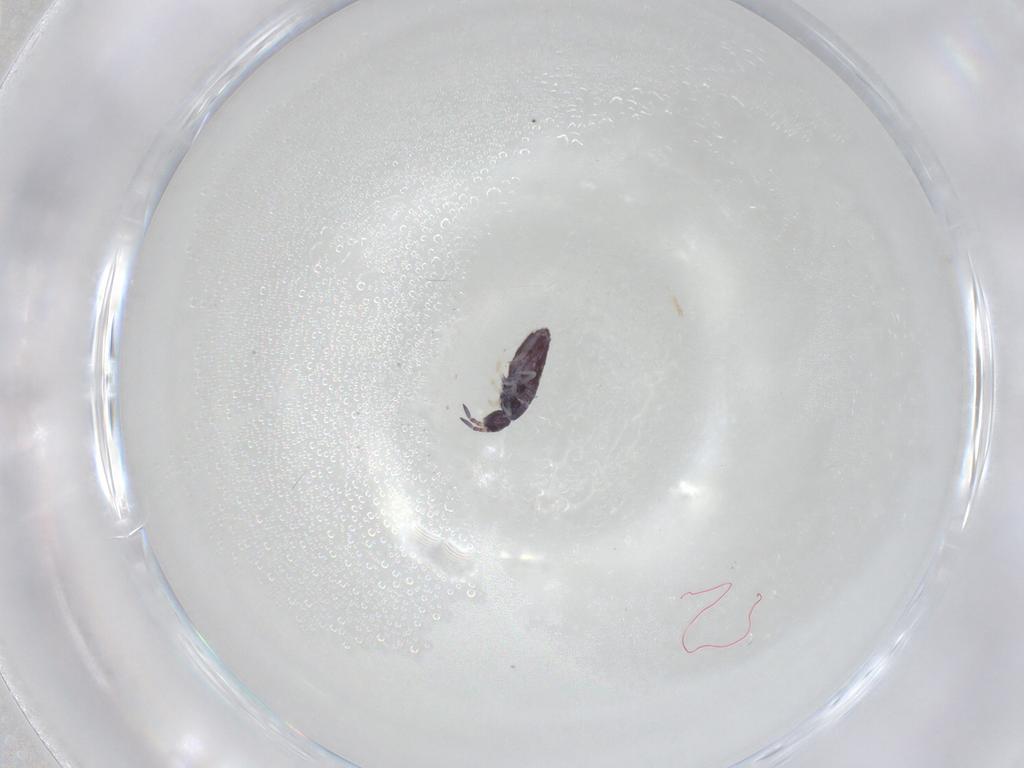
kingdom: Animalia
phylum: Arthropoda
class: Collembola
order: Entomobryomorpha
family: Entomobryidae
